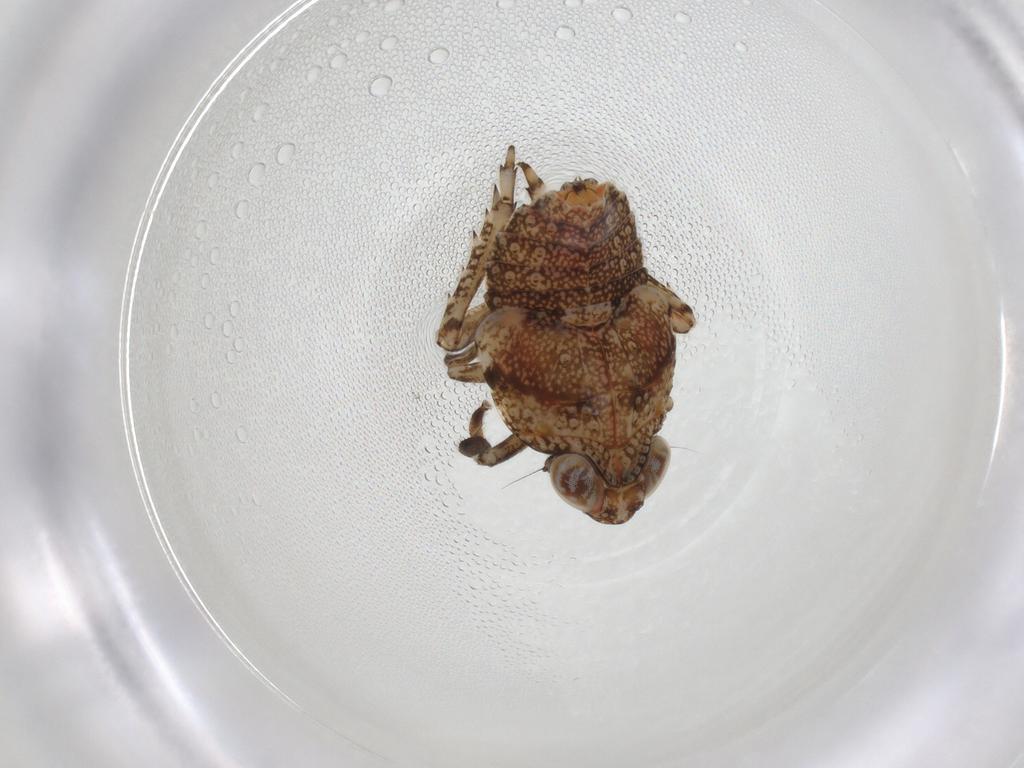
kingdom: Animalia
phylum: Arthropoda
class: Insecta
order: Hemiptera
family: Issidae
